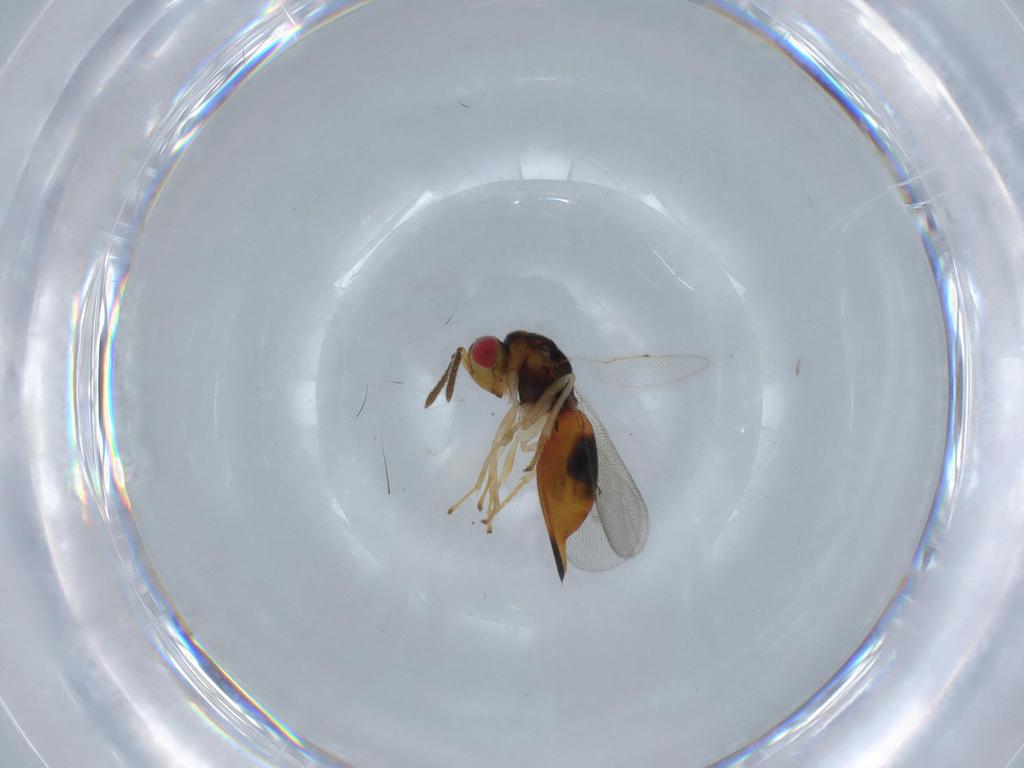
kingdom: Animalia
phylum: Arthropoda
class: Insecta
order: Hymenoptera
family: Eurytomidae
